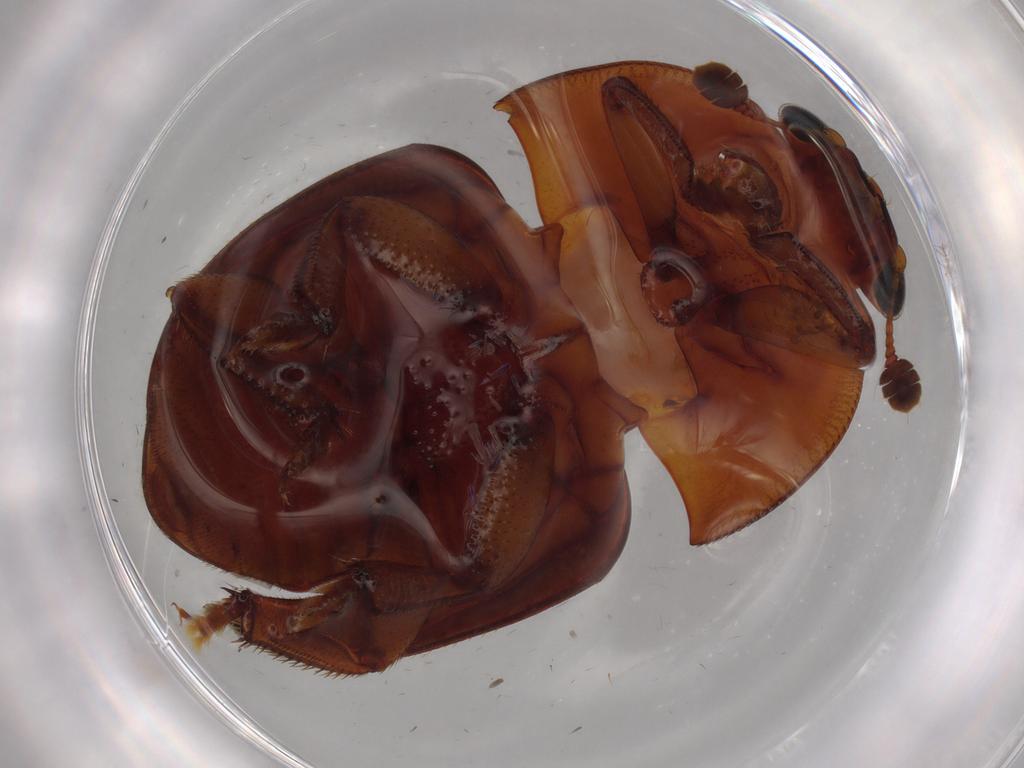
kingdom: Animalia
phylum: Arthropoda
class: Insecta
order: Coleoptera
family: Nitidulidae
